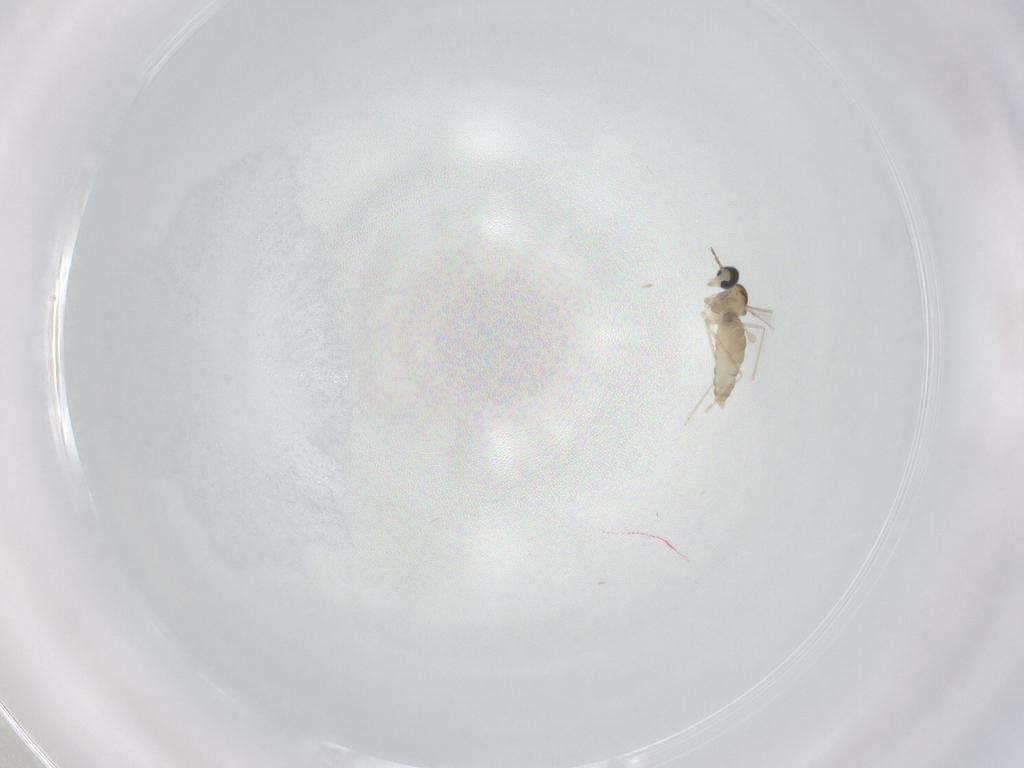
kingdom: Animalia
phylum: Arthropoda
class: Insecta
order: Diptera
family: Cecidomyiidae
